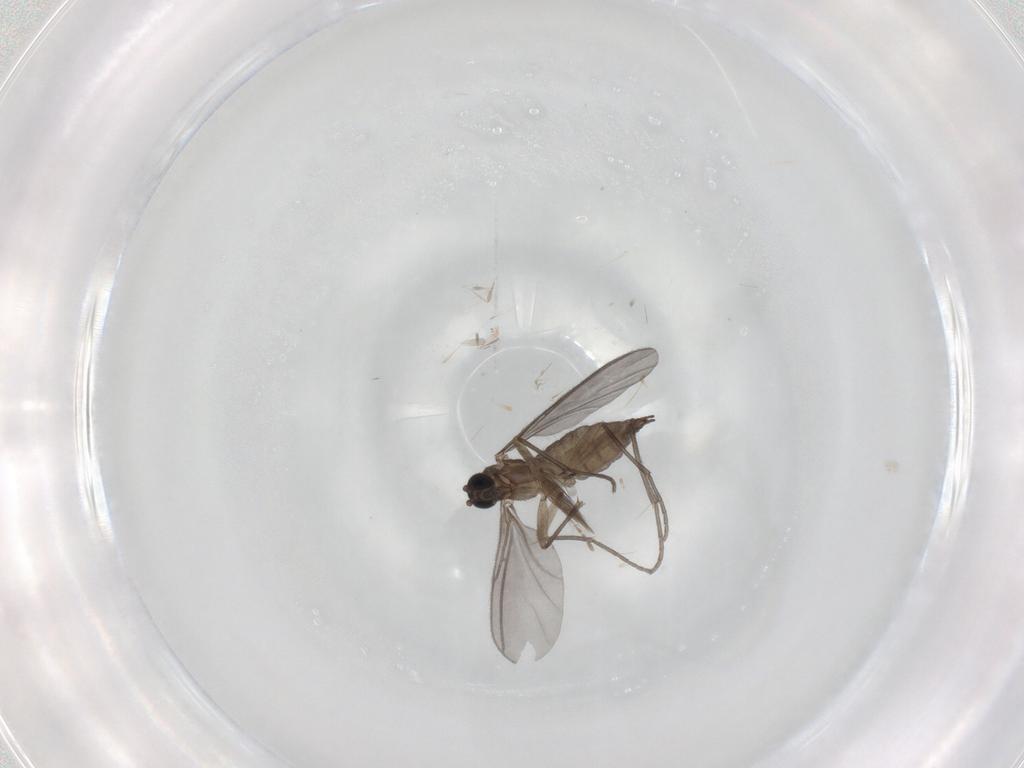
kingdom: Animalia
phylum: Arthropoda
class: Insecta
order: Diptera
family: Sciaridae
